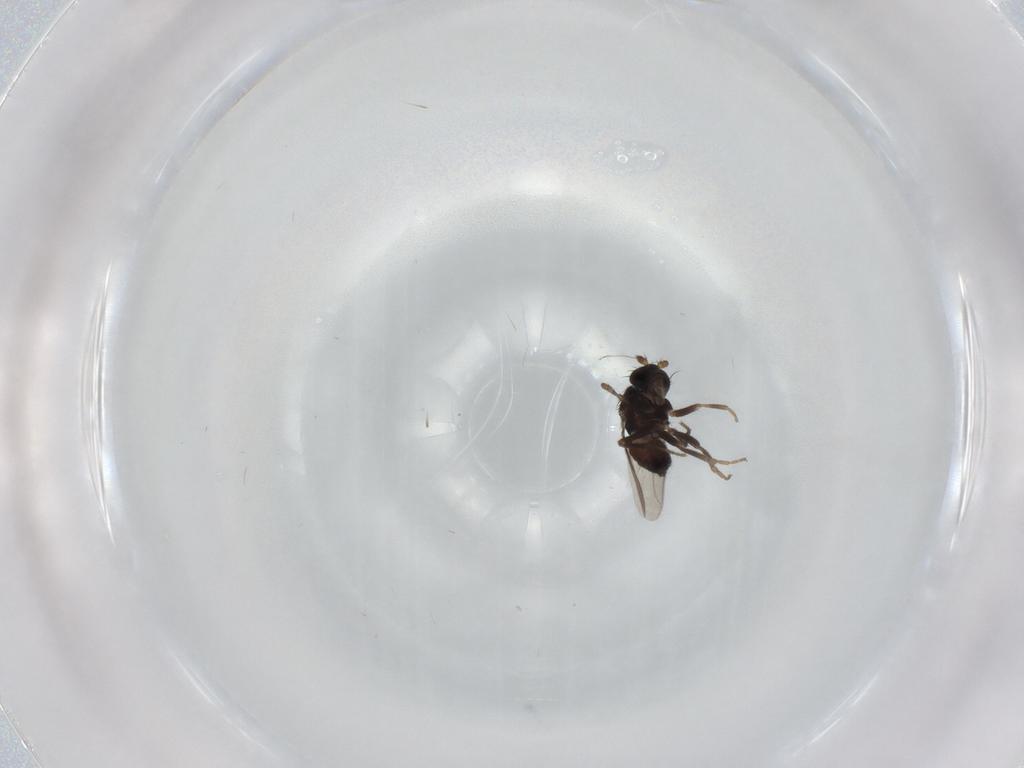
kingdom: Animalia
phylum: Arthropoda
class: Insecta
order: Diptera
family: Sphaeroceridae
